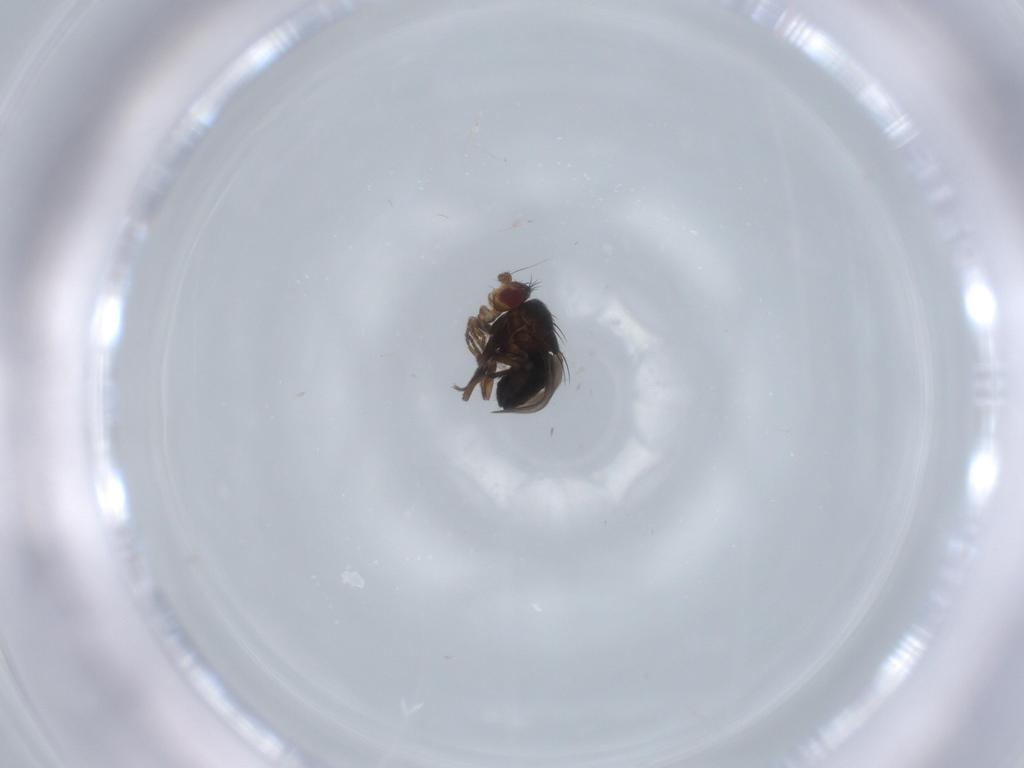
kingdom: Animalia
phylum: Arthropoda
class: Insecta
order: Diptera
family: Sphaeroceridae
